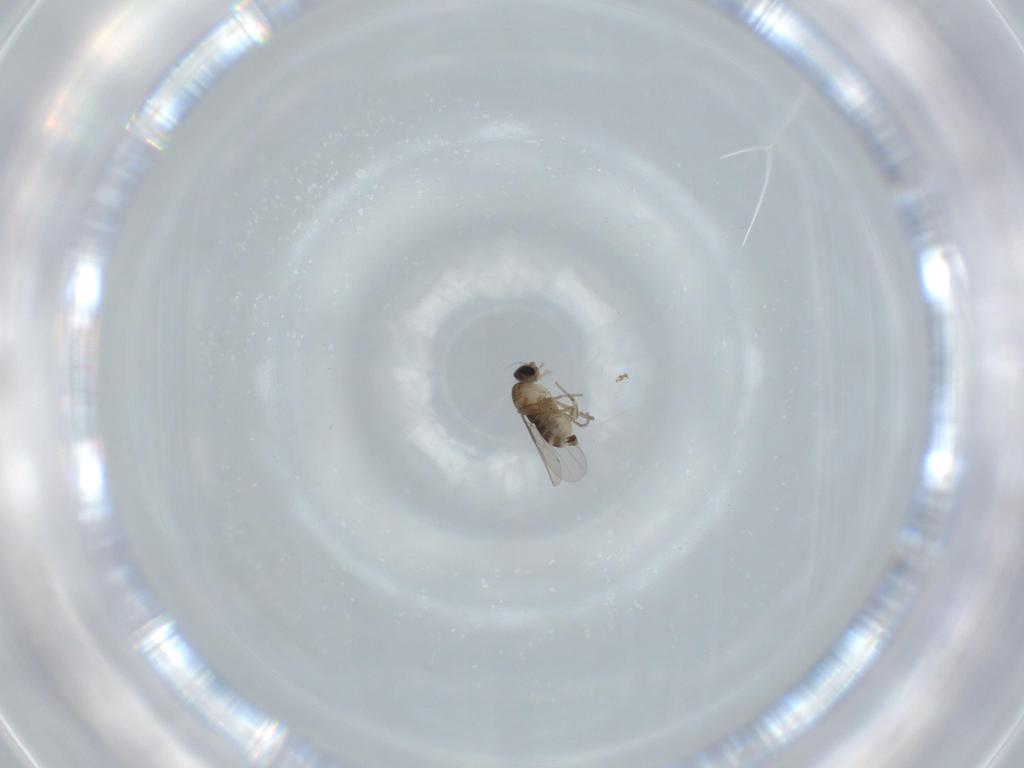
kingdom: Animalia
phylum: Arthropoda
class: Insecta
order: Diptera
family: Phoridae
